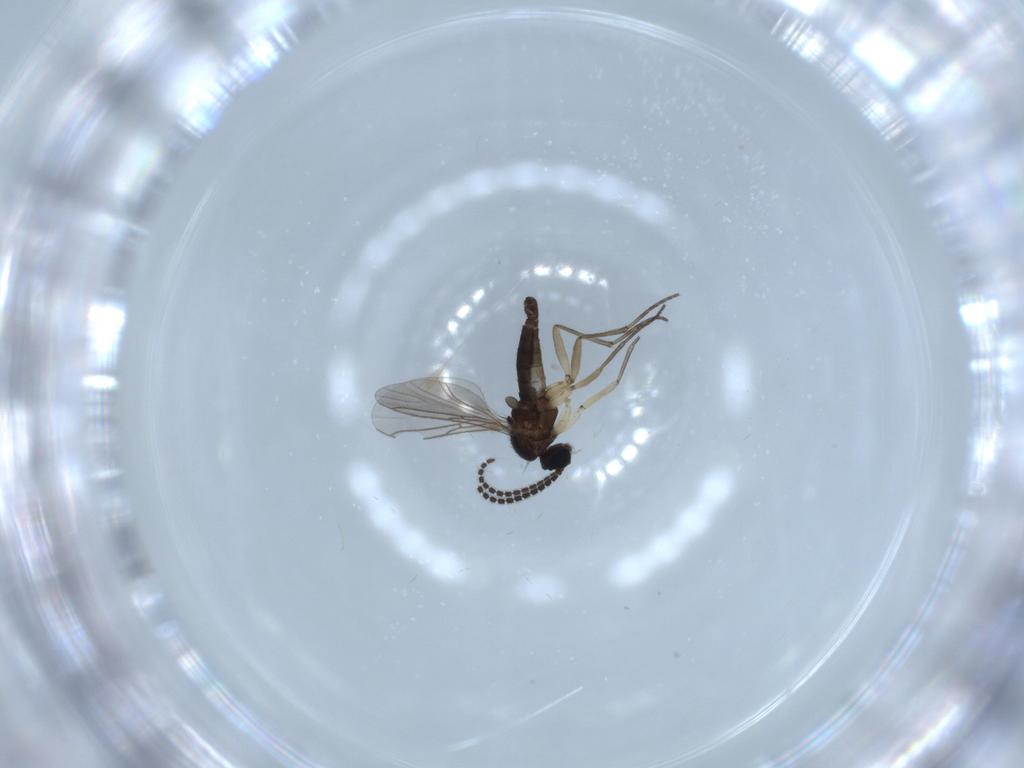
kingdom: Animalia
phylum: Arthropoda
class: Insecta
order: Diptera
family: Sciaridae
